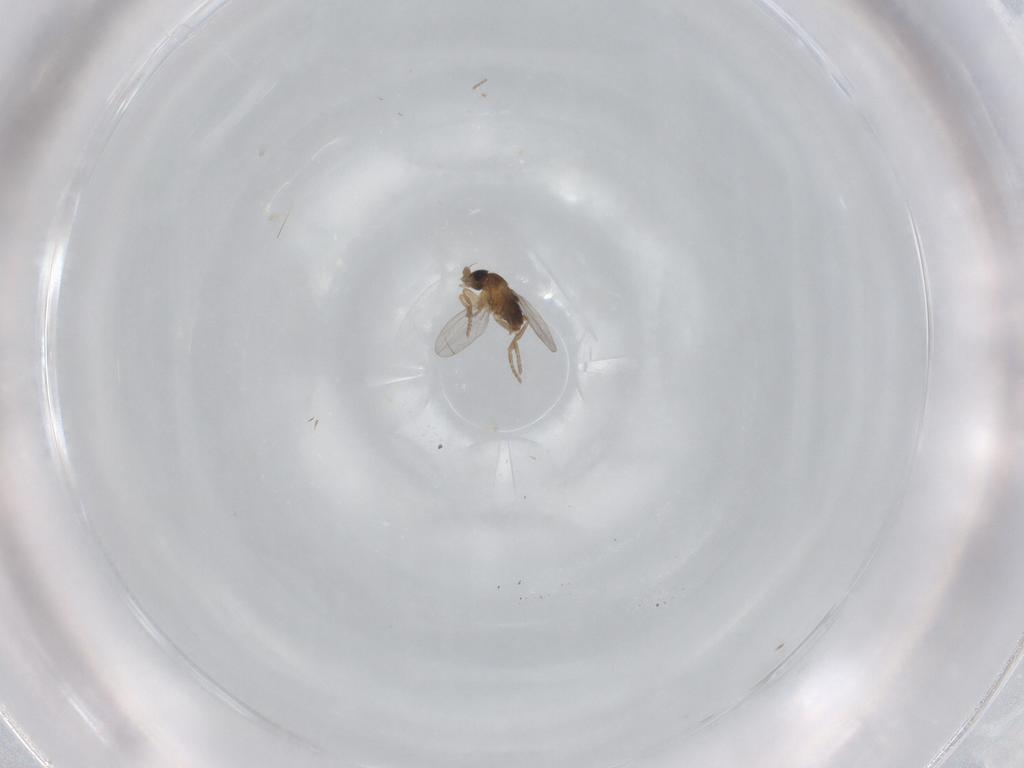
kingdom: Animalia
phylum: Arthropoda
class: Insecta
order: Diptera
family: Phoridae
